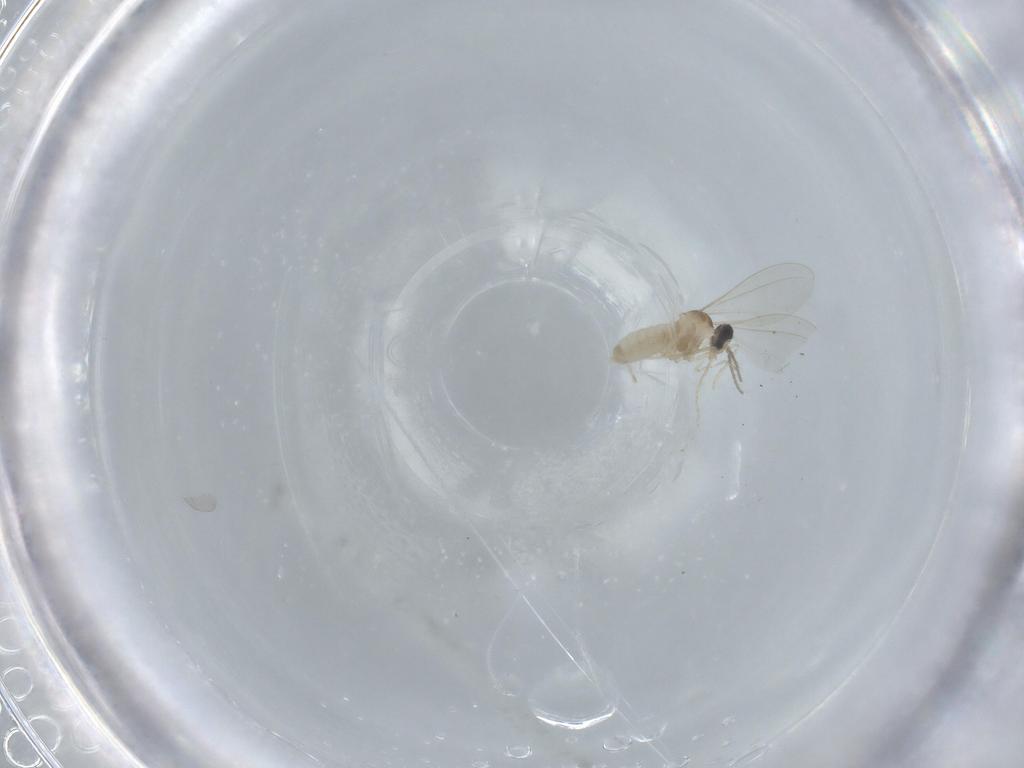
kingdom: Animalia
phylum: Arthropoda
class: Insecta
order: Diptera
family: Cecidomyiidae
